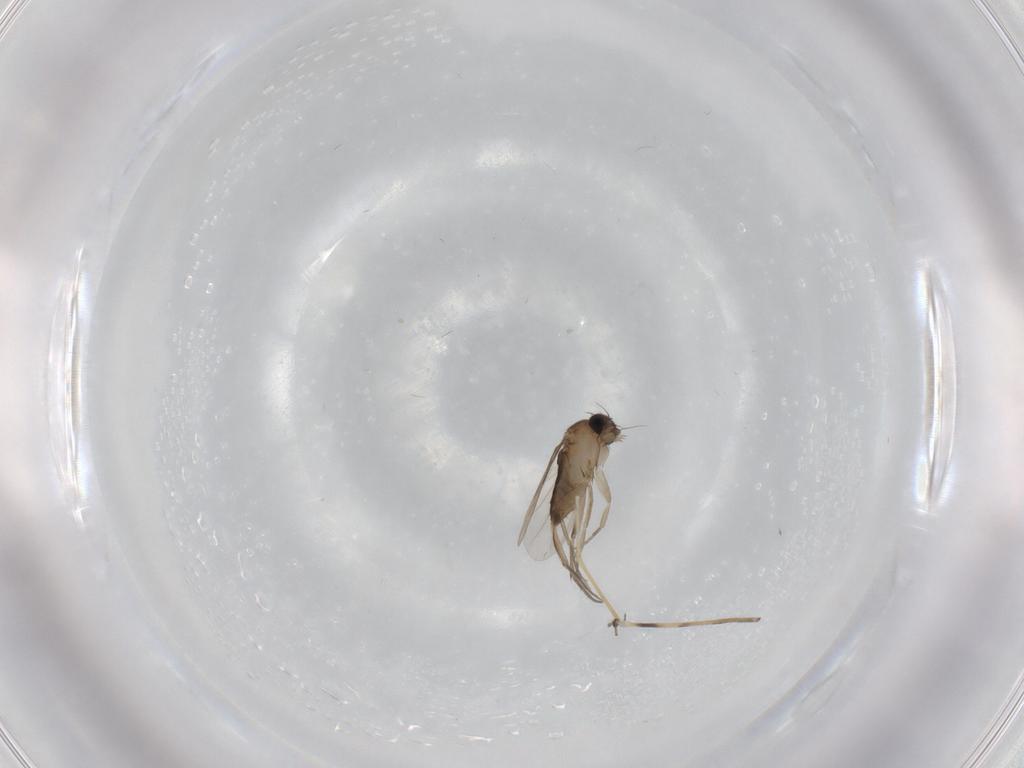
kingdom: Animalia
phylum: Arthropoda
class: Insecta
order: Diptera
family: Phoridae
